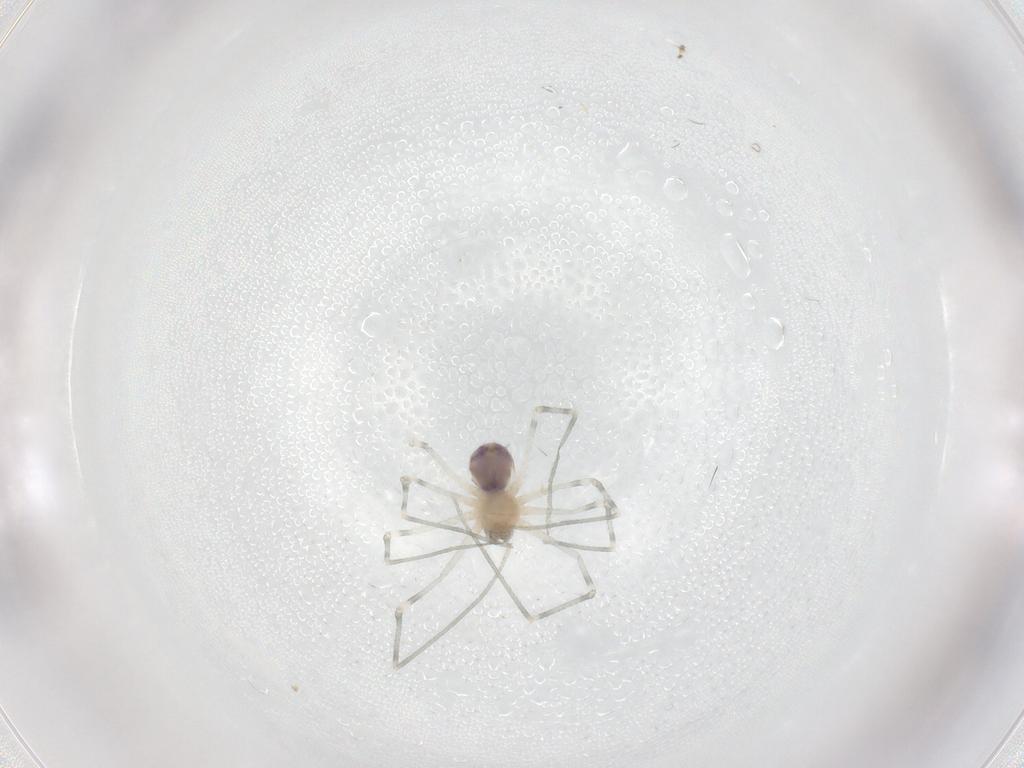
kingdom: Animalia
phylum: Arthropoda
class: Arachnida
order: Araneae
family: Pholcidae
